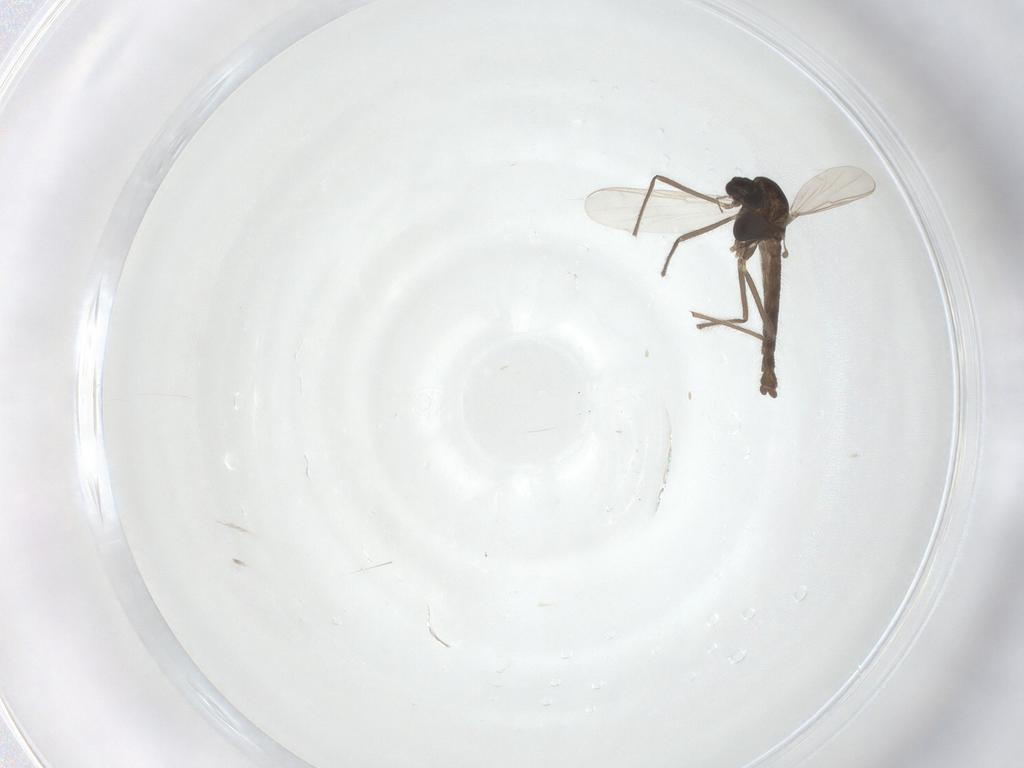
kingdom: Animalia
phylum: Arthropoda
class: Insecta
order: Diptera
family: Chironomidae
